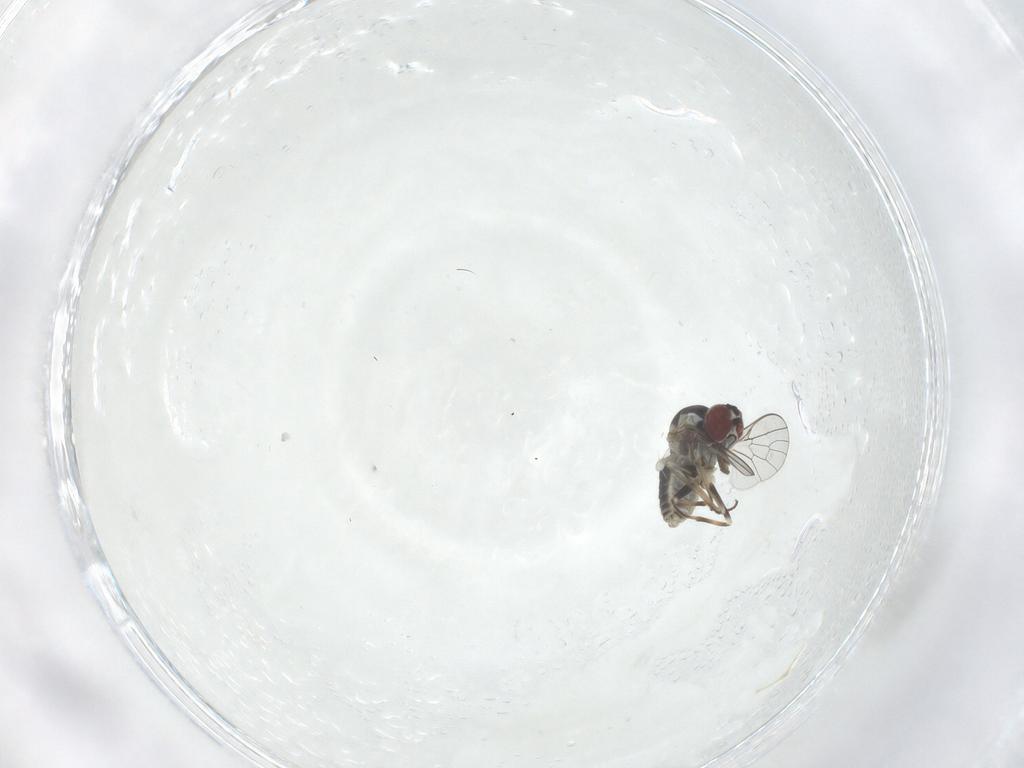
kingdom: Animalia
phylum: Arthropoda
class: Insecta
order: Diptera
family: Mythicomyiidae
